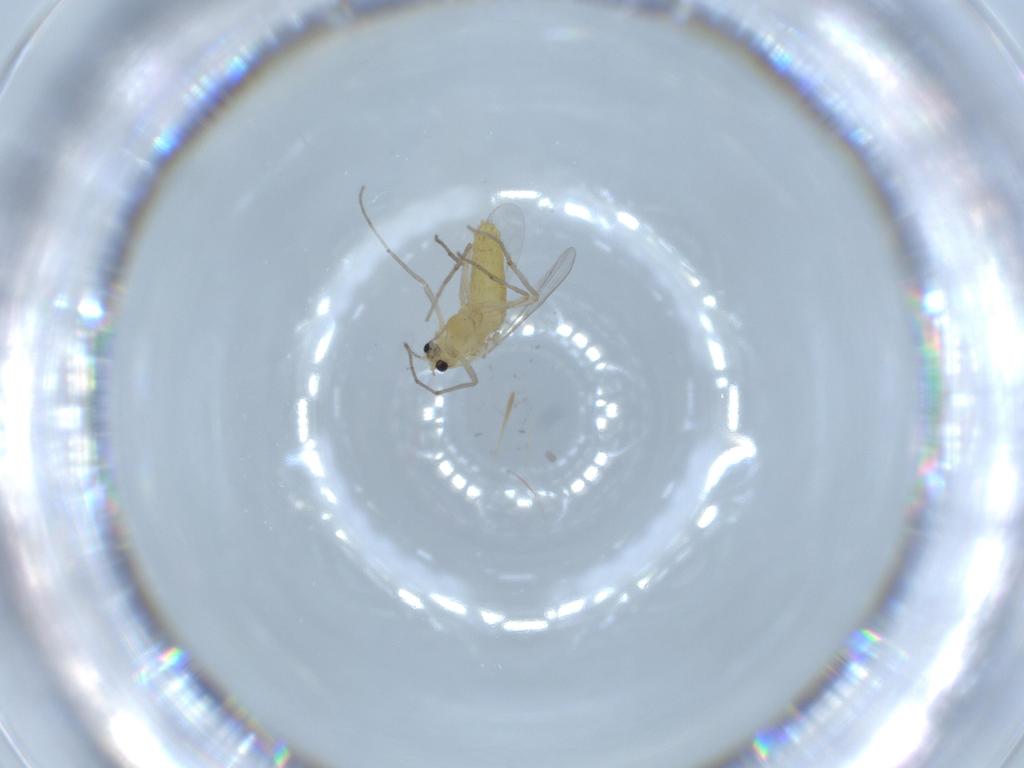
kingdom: Animalia
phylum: Arthropoda
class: Insecta
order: Diptera
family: Chironomidae
